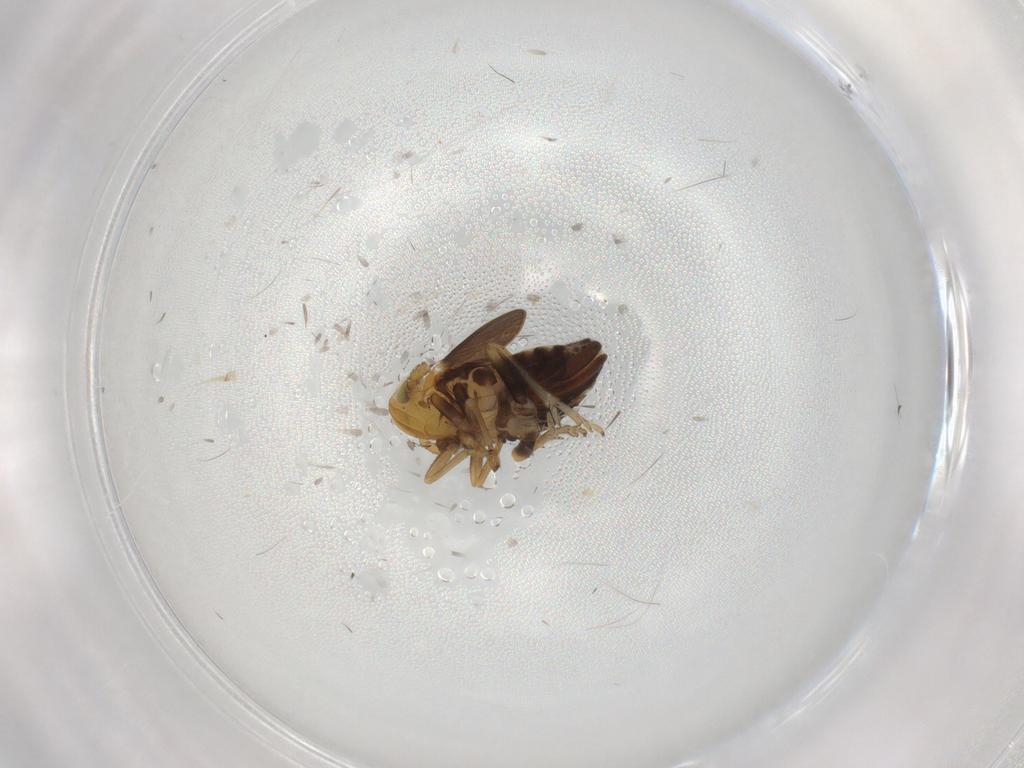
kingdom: Animalia
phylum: Arthropoda
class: Insecta
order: Hemiptera
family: Delphacidae
